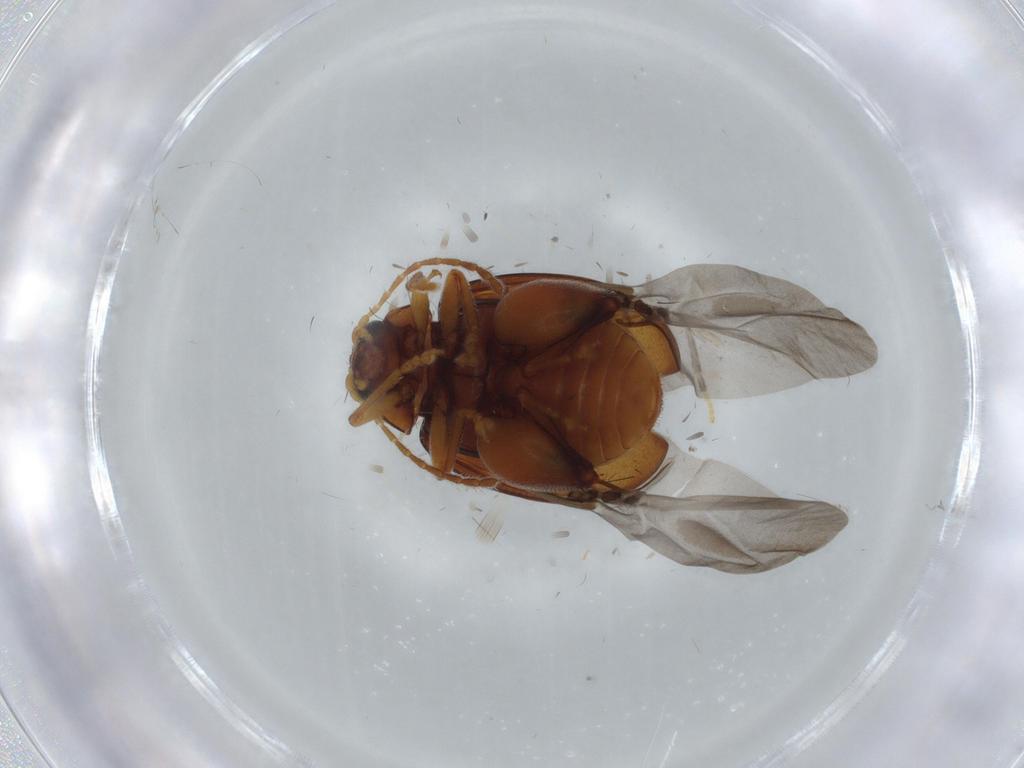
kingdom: Animalia
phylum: Arthropoda
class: Insecta
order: Coleoptera
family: Chrysomelidae
